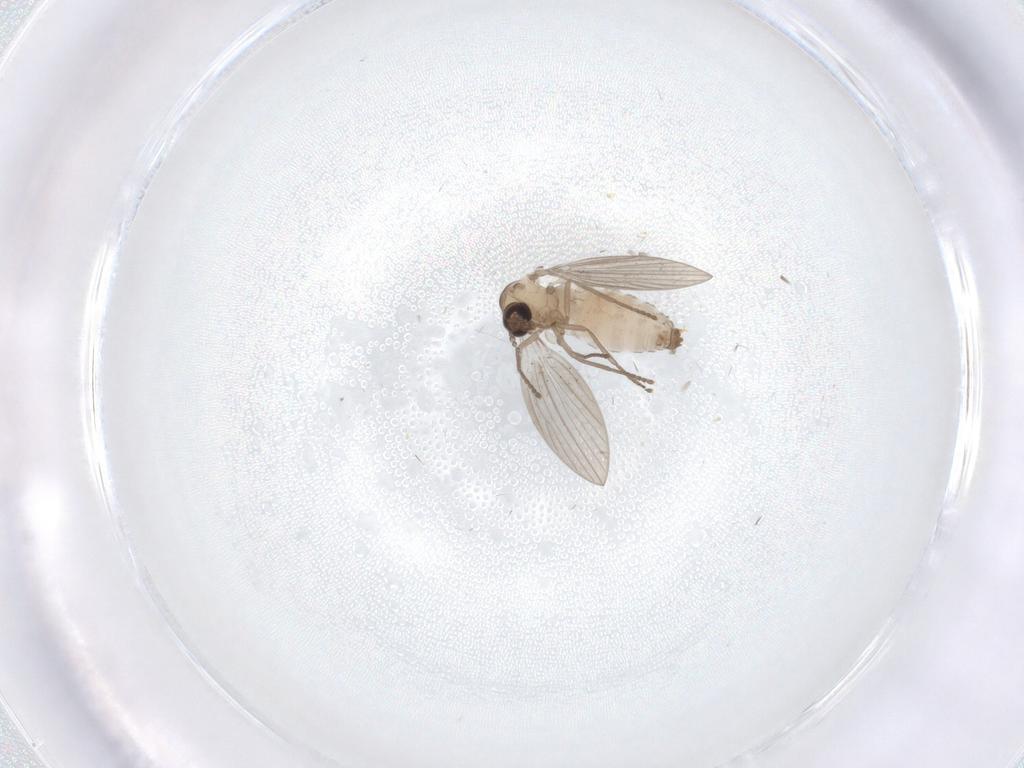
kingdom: Animalia
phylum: Arthropoda
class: Insecta
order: Diptera
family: Psychodidae
